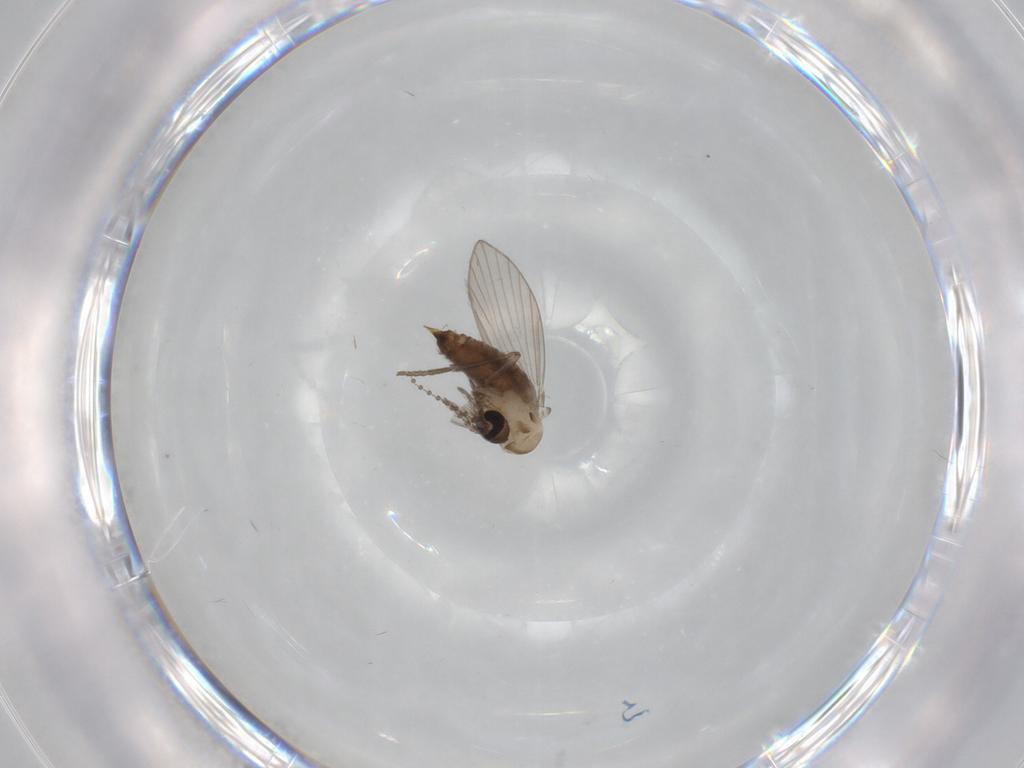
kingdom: Animalia
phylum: Arthropoda
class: Insecta
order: Diptera
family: Psychodidae
